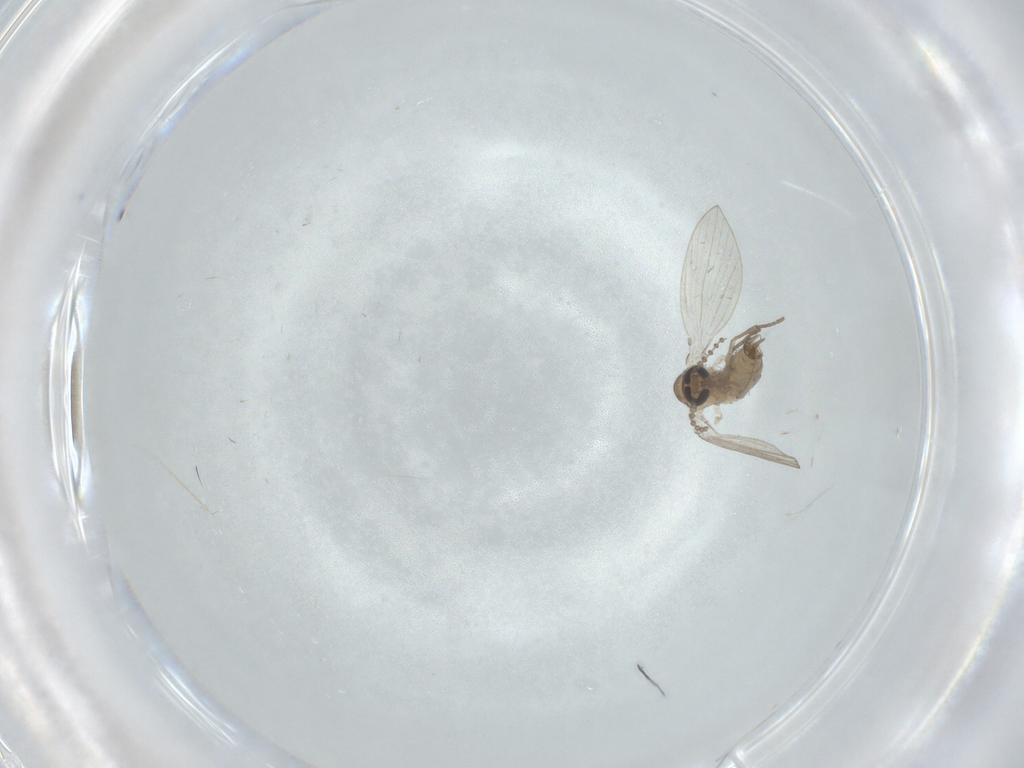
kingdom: Animalia
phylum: Arthropoda
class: Insecta
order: Diptera
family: Psychodidae
